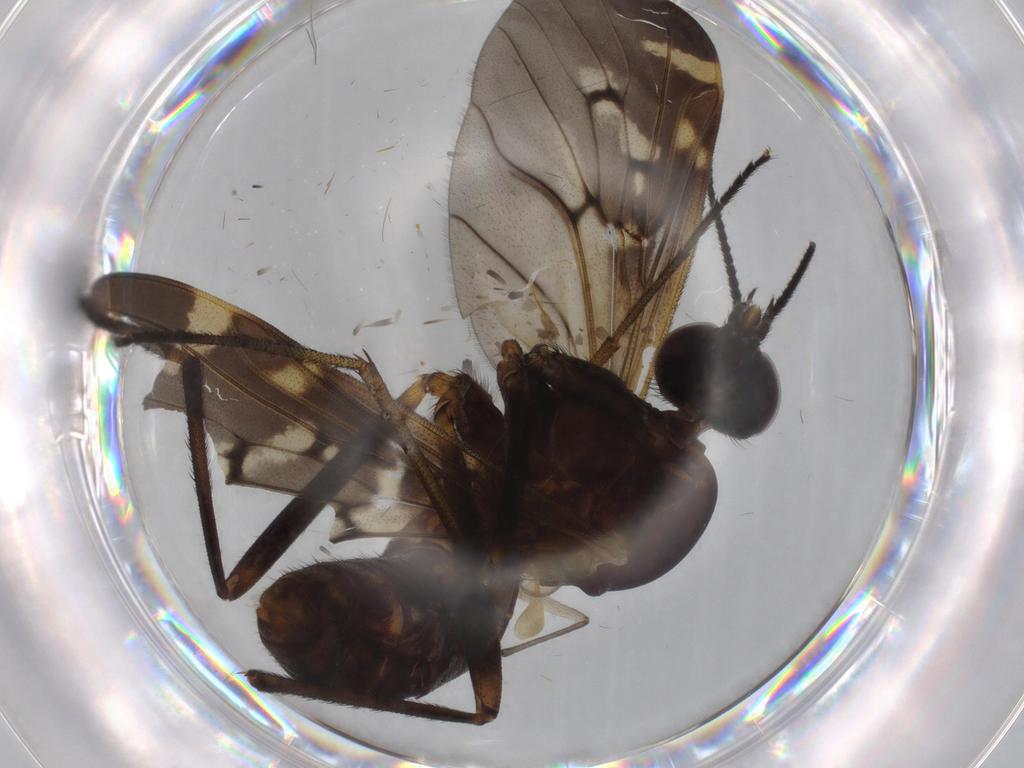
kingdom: Animalia
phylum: Arthropoda
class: Insecta
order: Diptera
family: Sciaridae
